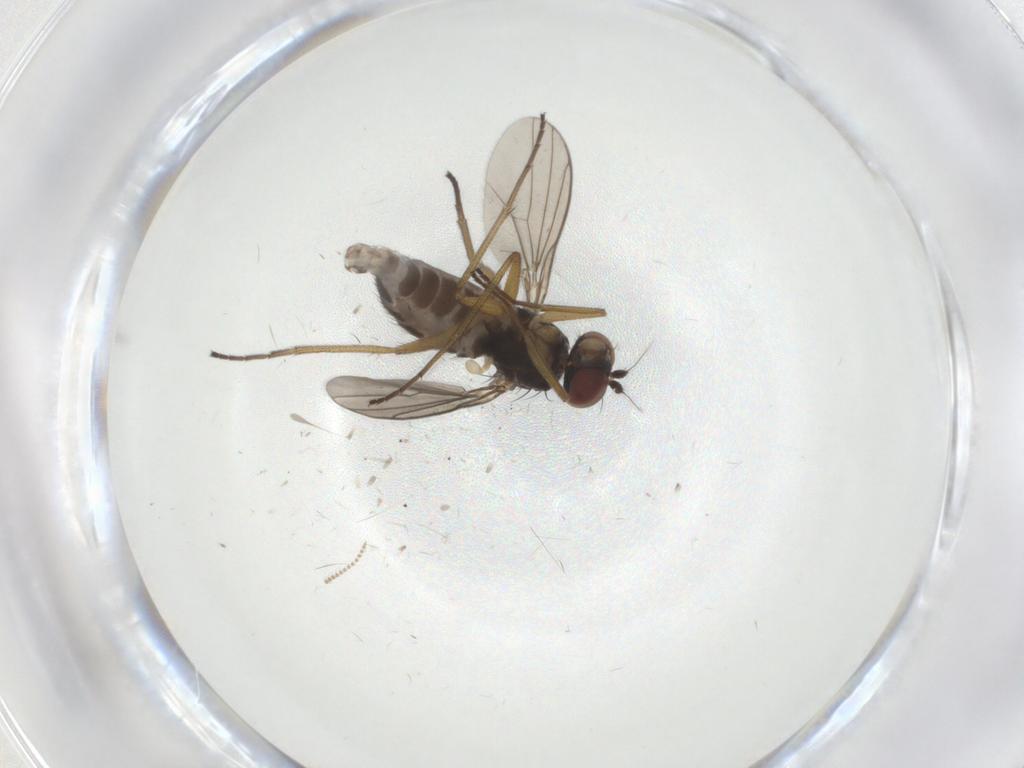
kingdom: Animalia
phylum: Arthropoda
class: Insecta
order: Diptera
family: Dolichopodidae
